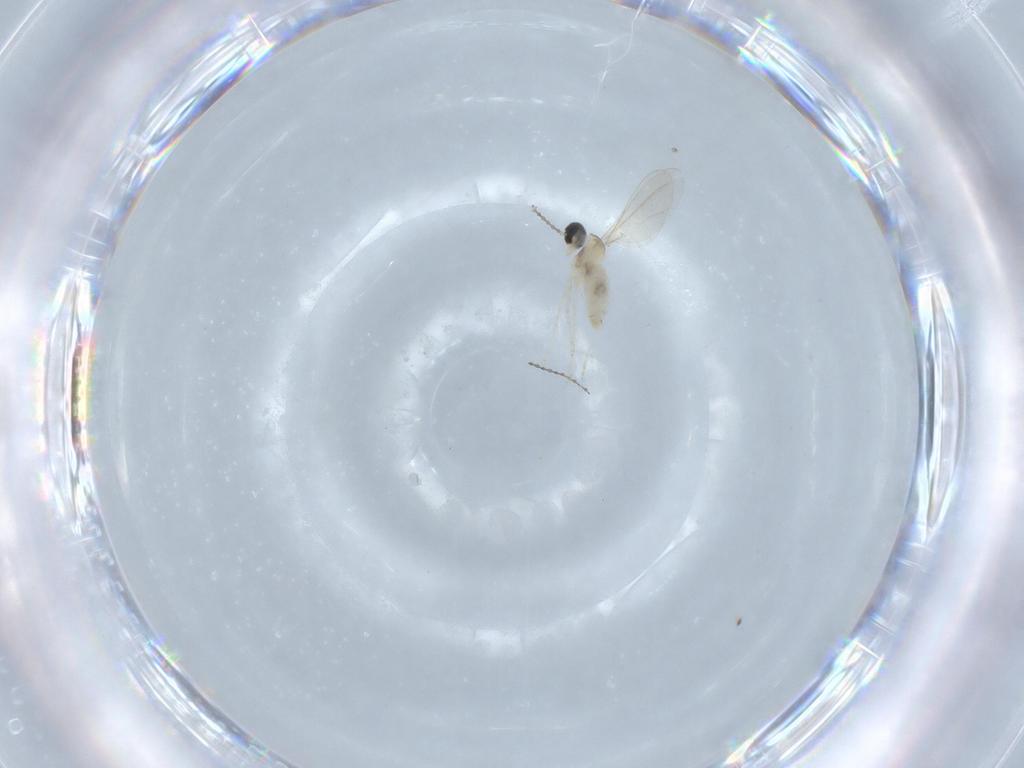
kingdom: Animalia
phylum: Arthropoda
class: Insecta
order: Diptera
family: Cecidomyiidae
